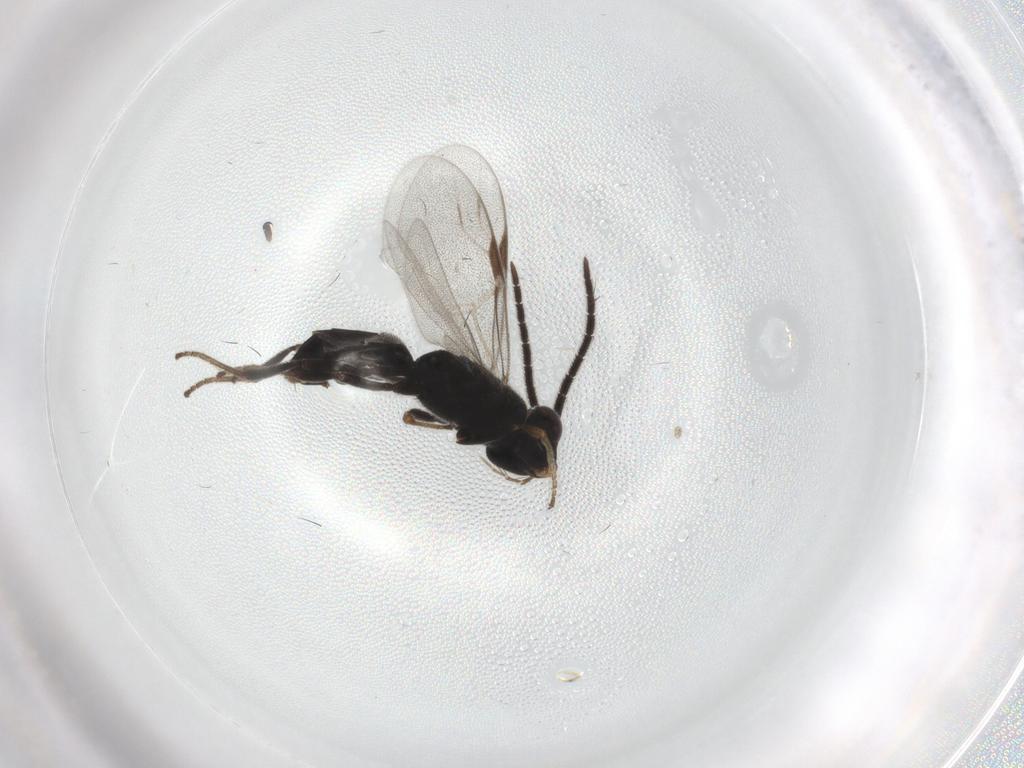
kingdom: Animalia
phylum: Arthropoda
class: Insecta
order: Hymenoptera
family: Dryinidae
